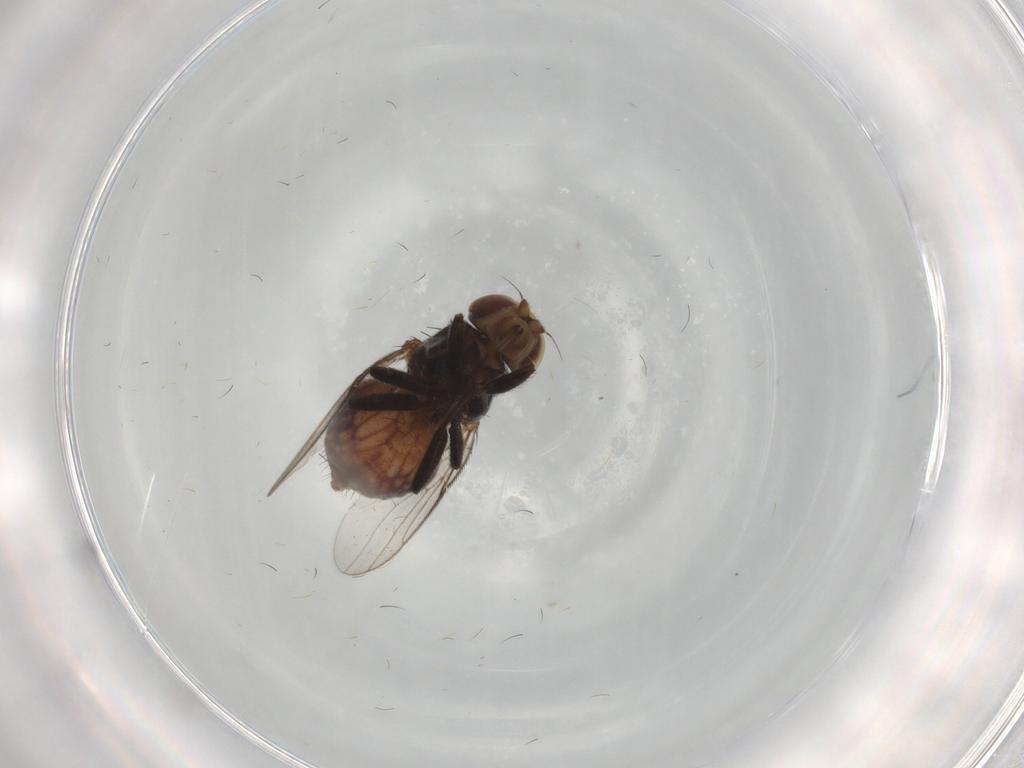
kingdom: Animalia
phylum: Arthropoda
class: Insecta
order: Diptera
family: Chloropidae
